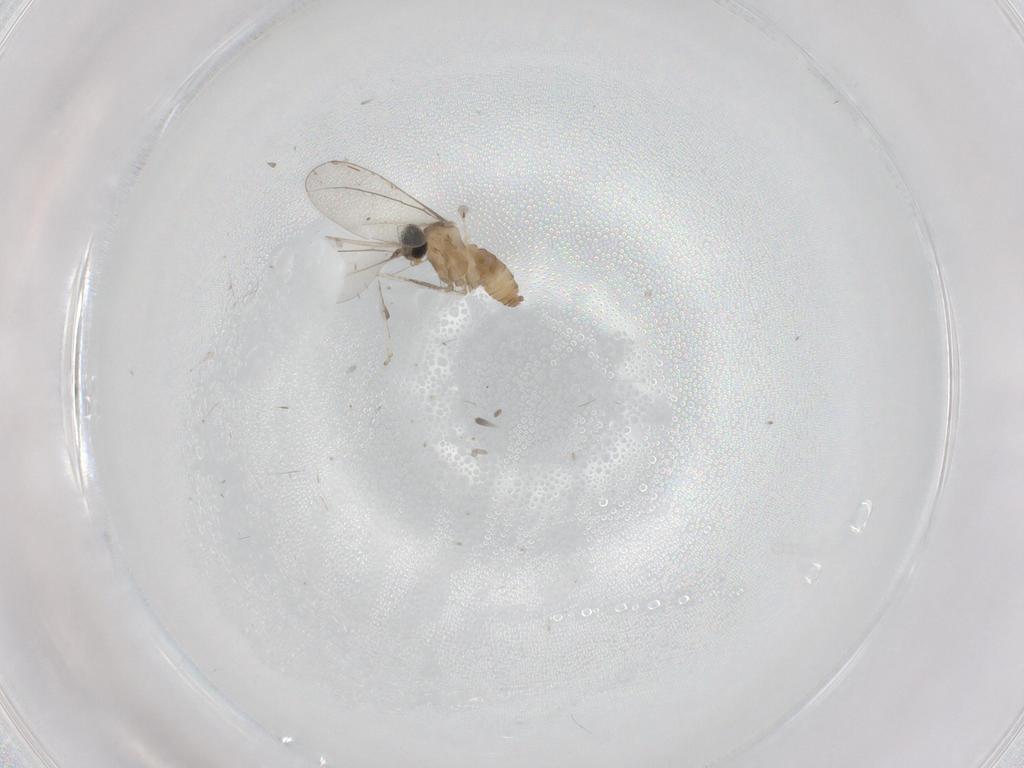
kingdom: Animalia
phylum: Arthropoda
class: Insecta
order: Diptera
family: Cecidomyiidae
